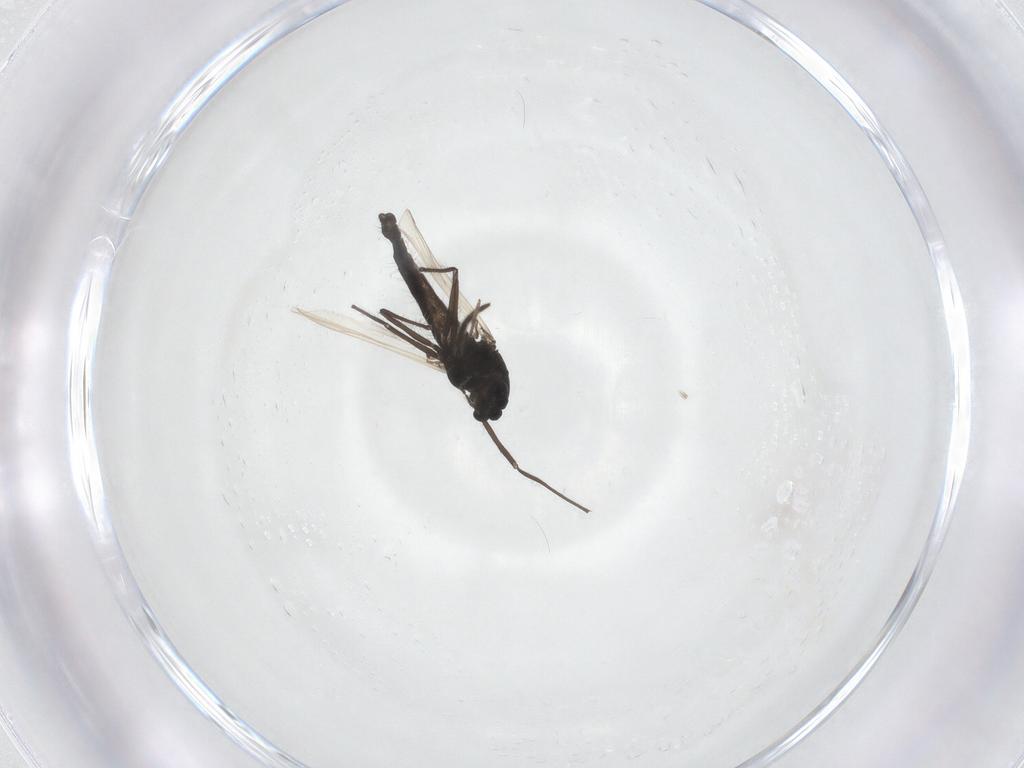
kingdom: Animalia
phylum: Arthropoda
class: Insecta
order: Diptera
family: Sciaridae
